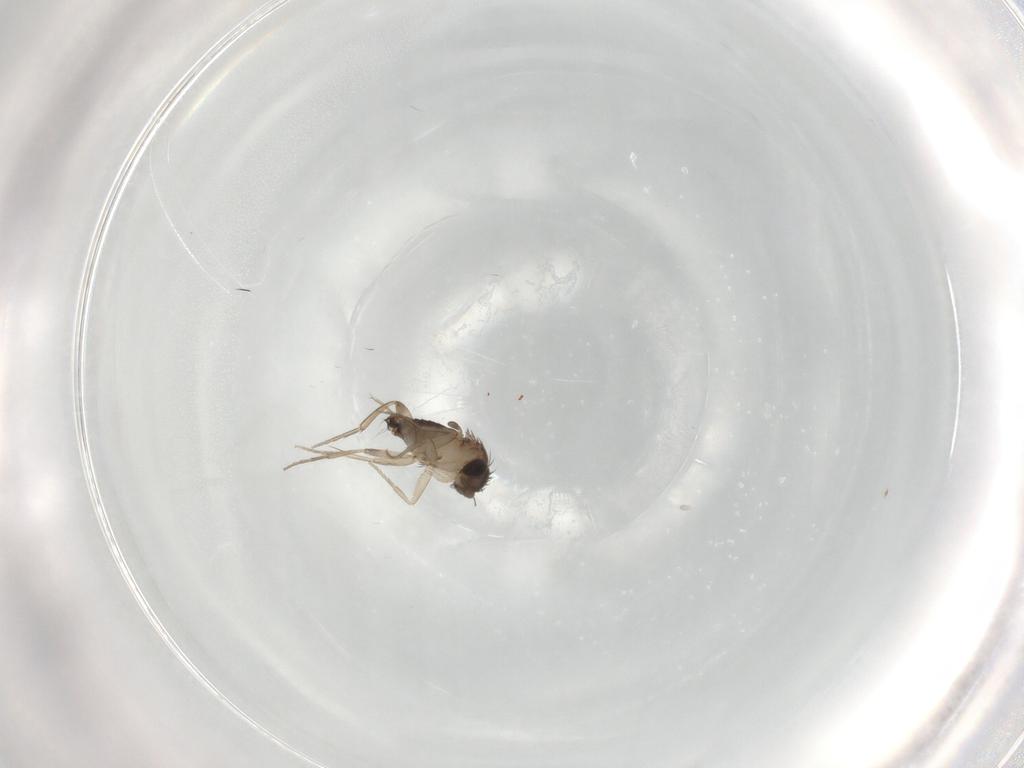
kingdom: Animalia
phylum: Arthropoda
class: Insecta
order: Diptera
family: Phoridae
